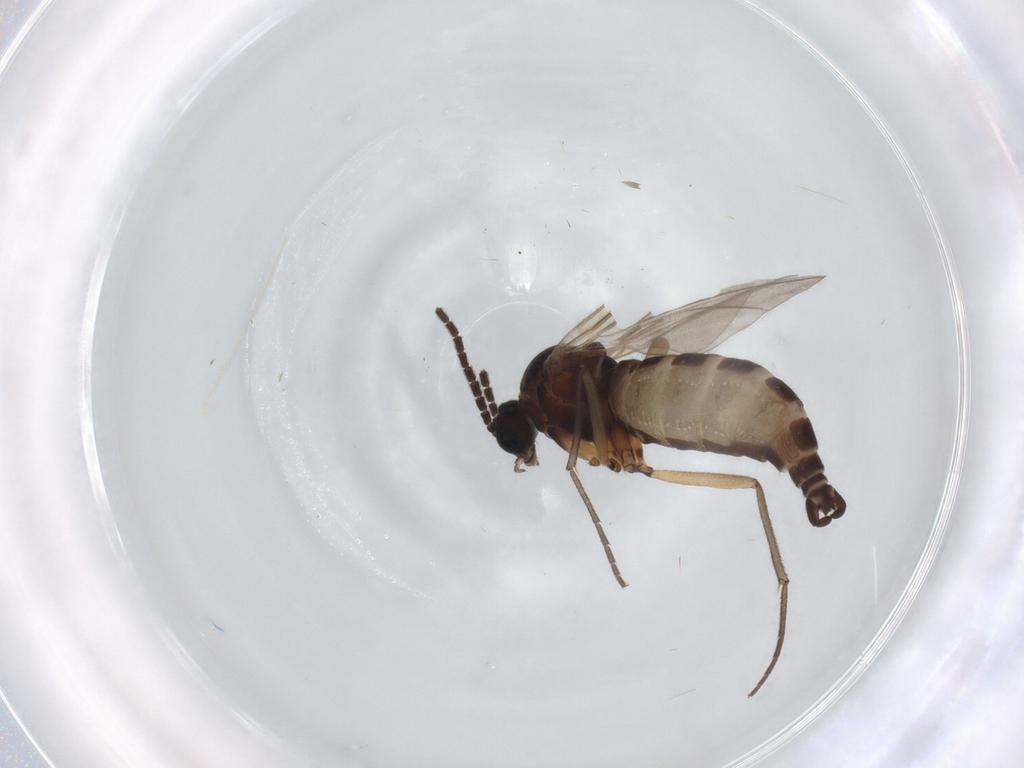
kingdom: Animalia
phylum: Arthropoda
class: Insecta
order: Diptera
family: Sciaridae
